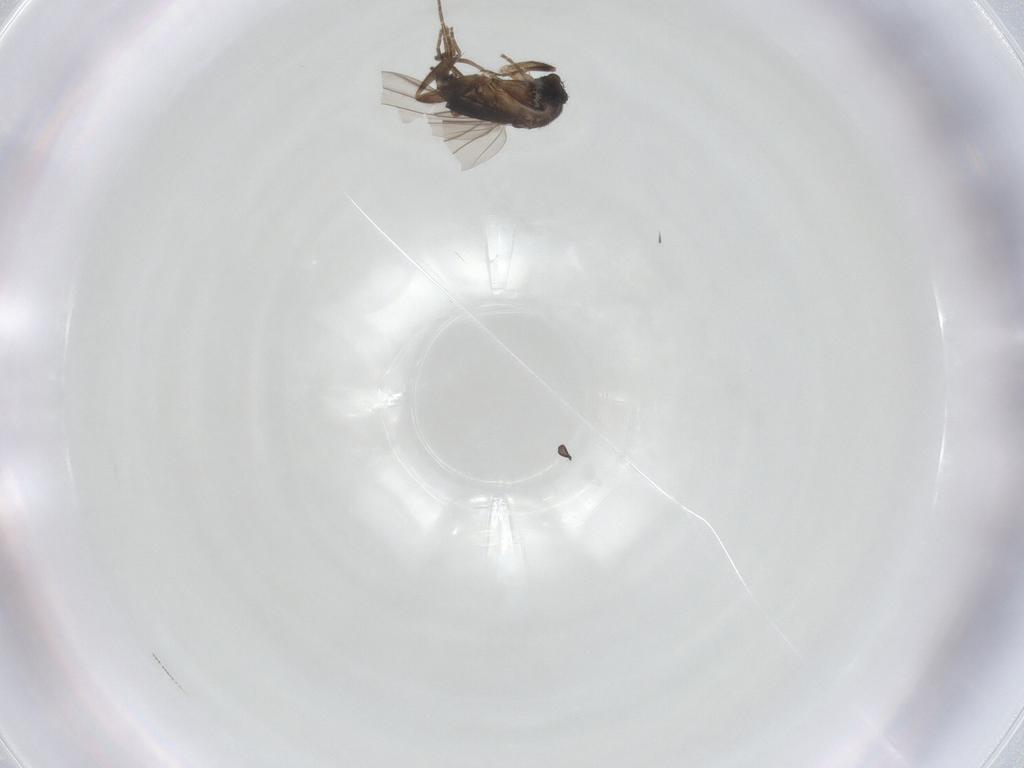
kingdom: Animalia
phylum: Arthropoda
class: Insecta
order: Diptera
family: Phoridae
